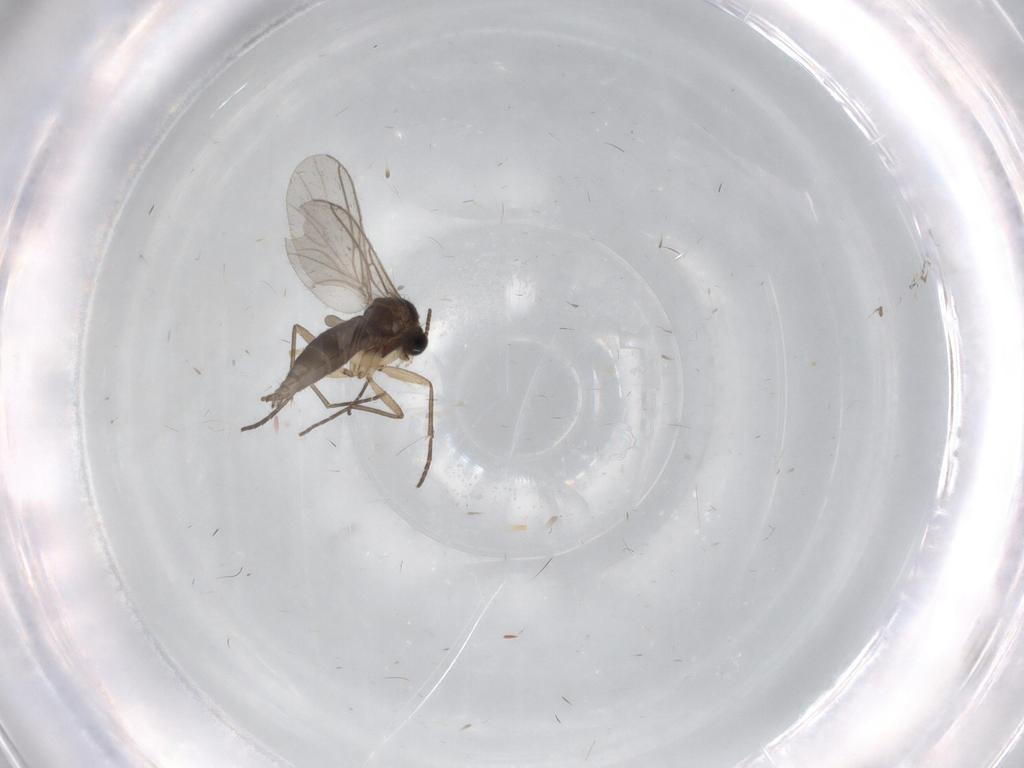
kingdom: Animalia
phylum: Arthropoda
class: Insecta
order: Diptera
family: Sciaridae
